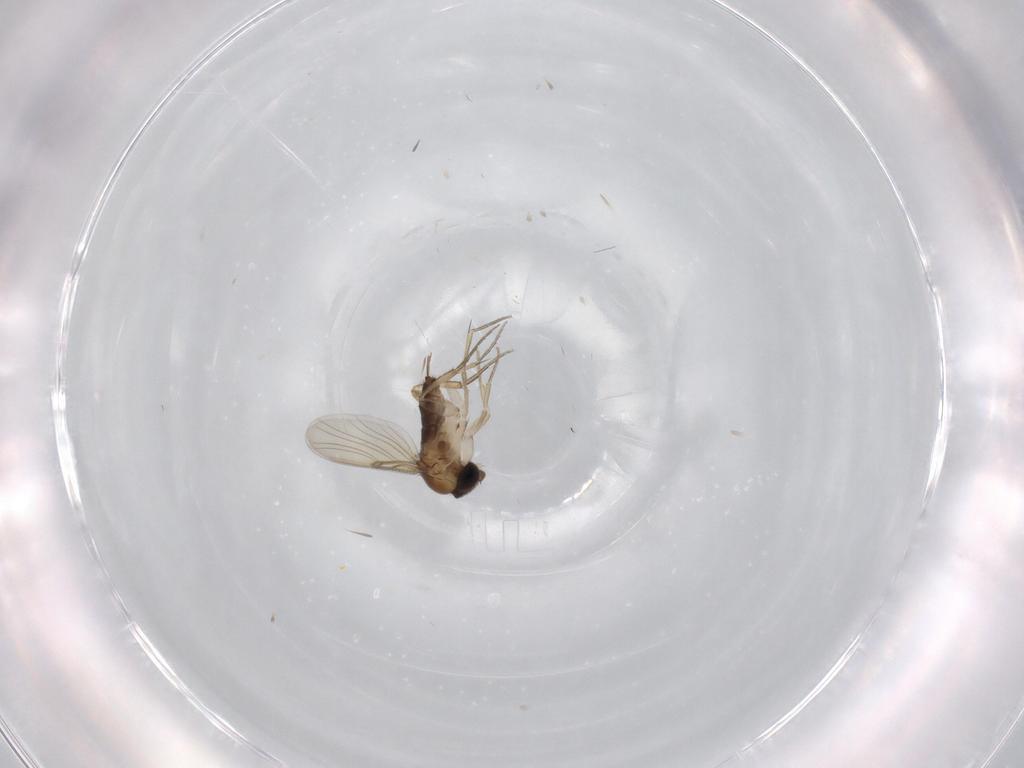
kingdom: Animalia
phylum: Arthropoda
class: Insecta
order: Diptera
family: Phoridae
